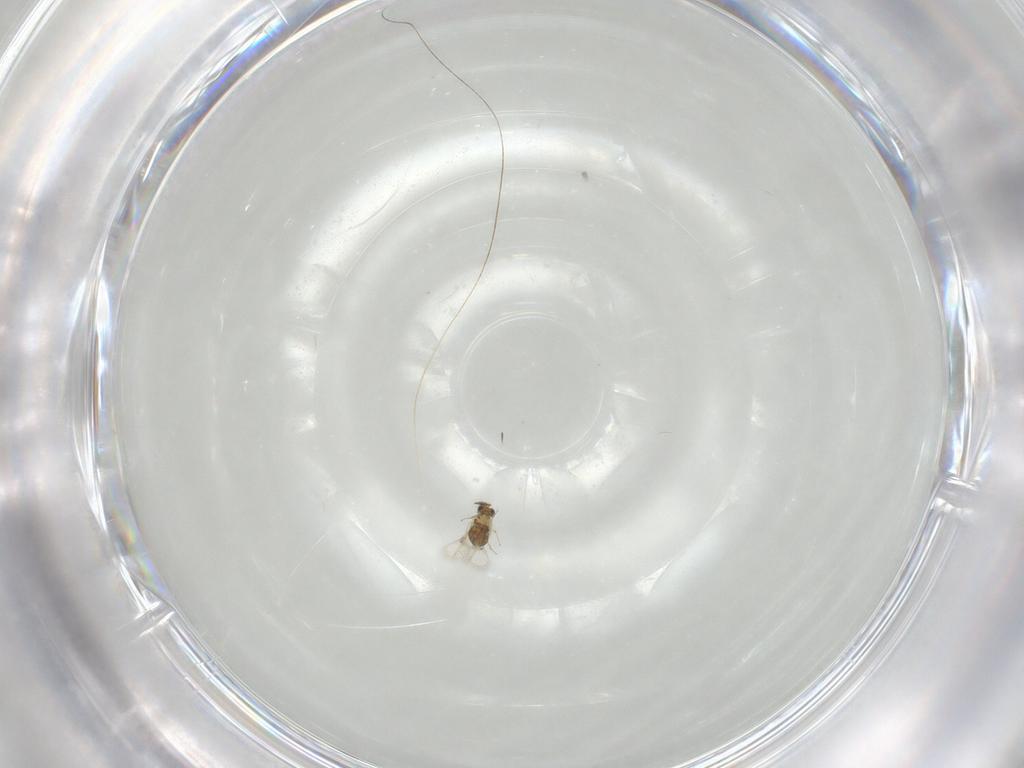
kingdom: Animalia
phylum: Arthropoda
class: Insecta
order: Hymenoptera
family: Trichogrammatidae
